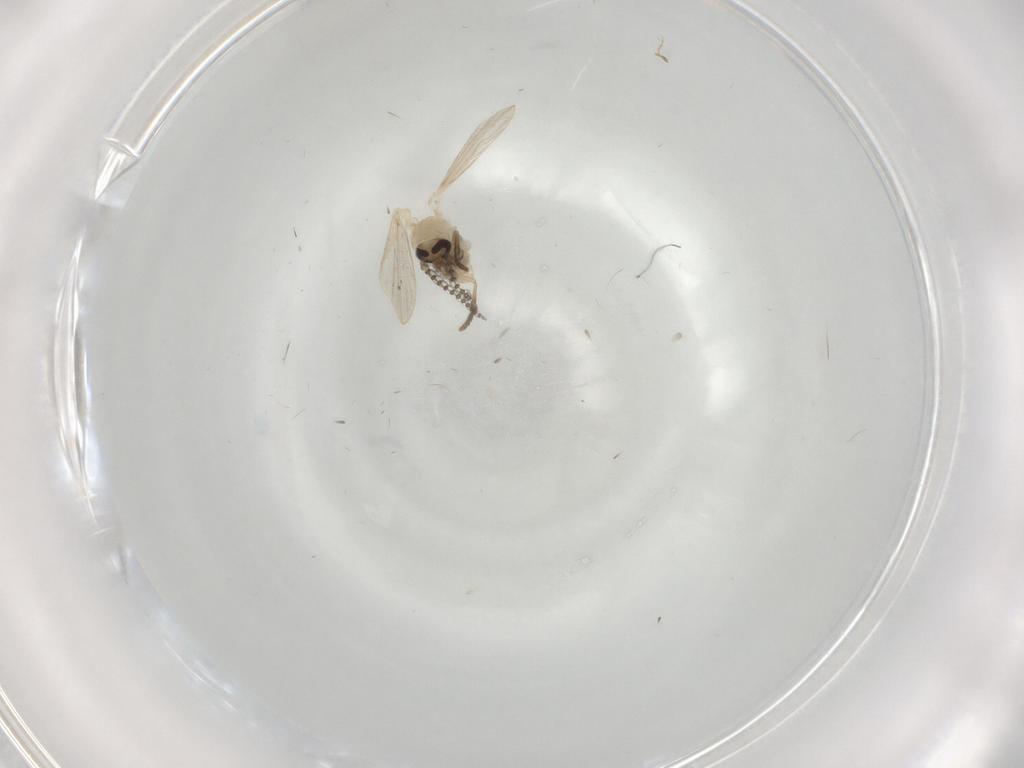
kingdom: Animalia
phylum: Arthropoda
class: Insecta
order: Diptera
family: Psychodidae
